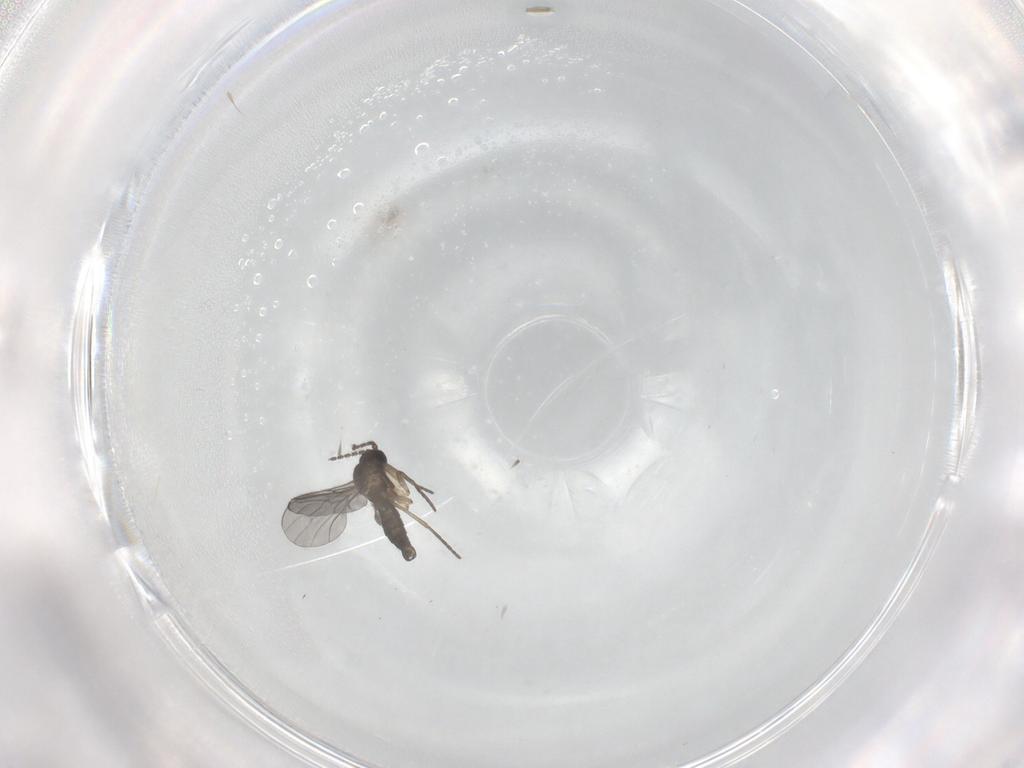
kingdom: Animalia
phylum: Arthropoda
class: Insecta
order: Diptera
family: Ceratopogonidae
